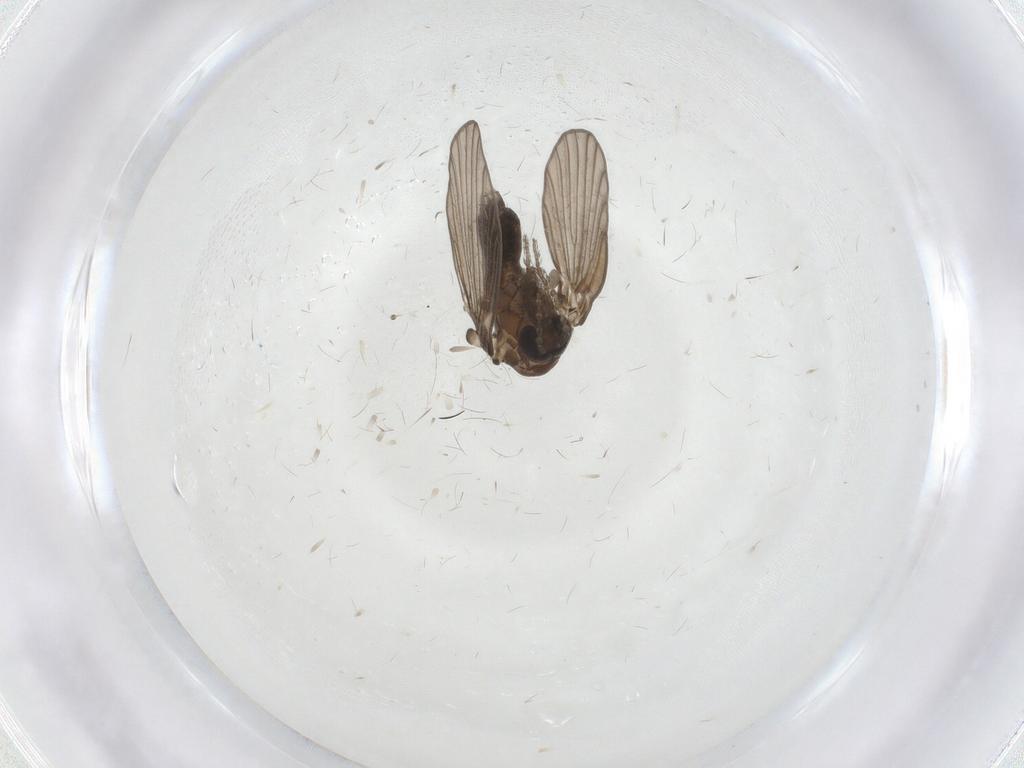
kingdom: Animalia
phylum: Arthropoda
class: Insecta
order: Diptera
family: Psychodidae
